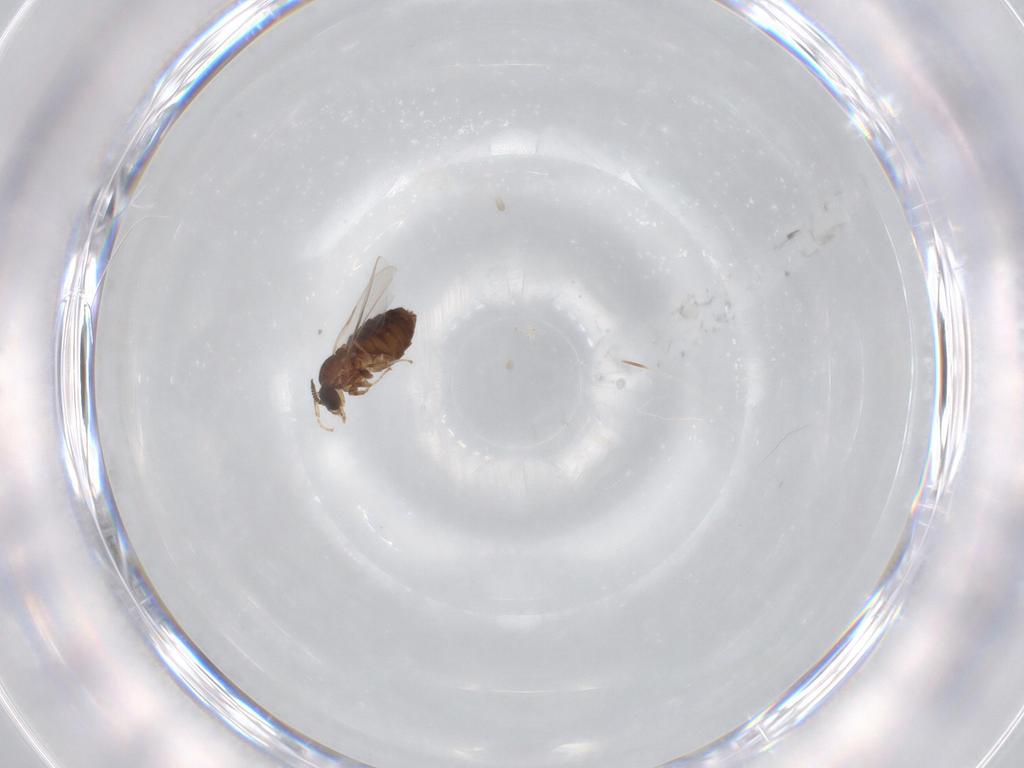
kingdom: Animalia
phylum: Arthropoda
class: Insecta
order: Diptera
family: Scatopsidae
